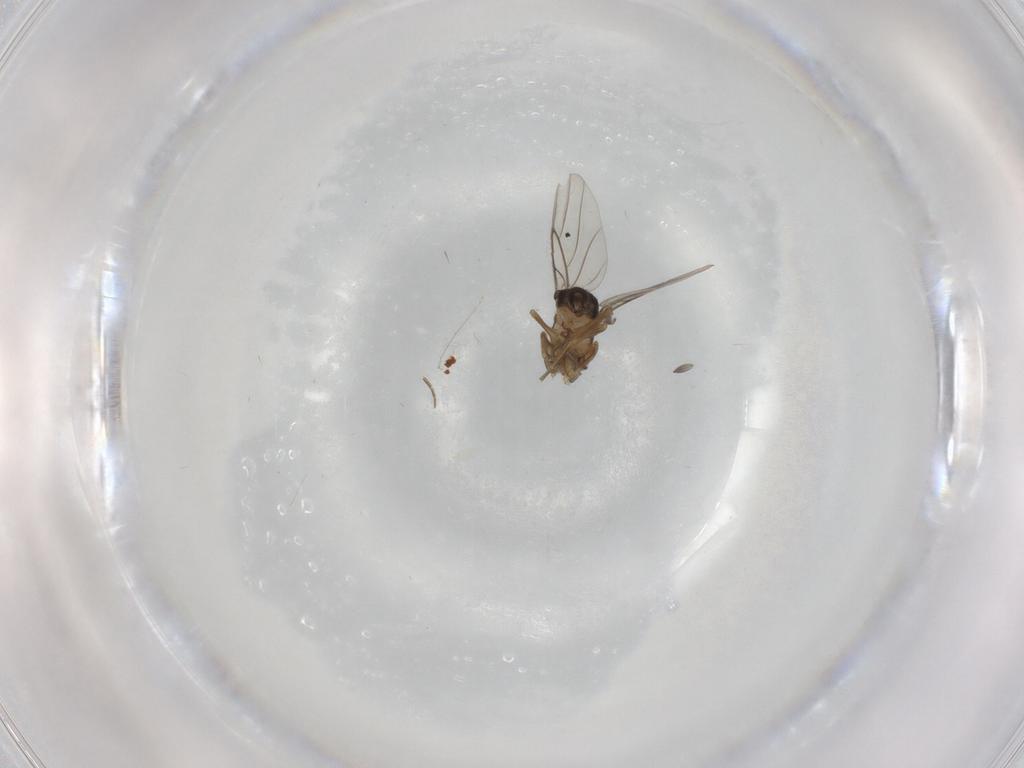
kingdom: Animalia
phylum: Arthropoda
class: Insecta
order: Diptera
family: Phoridae
